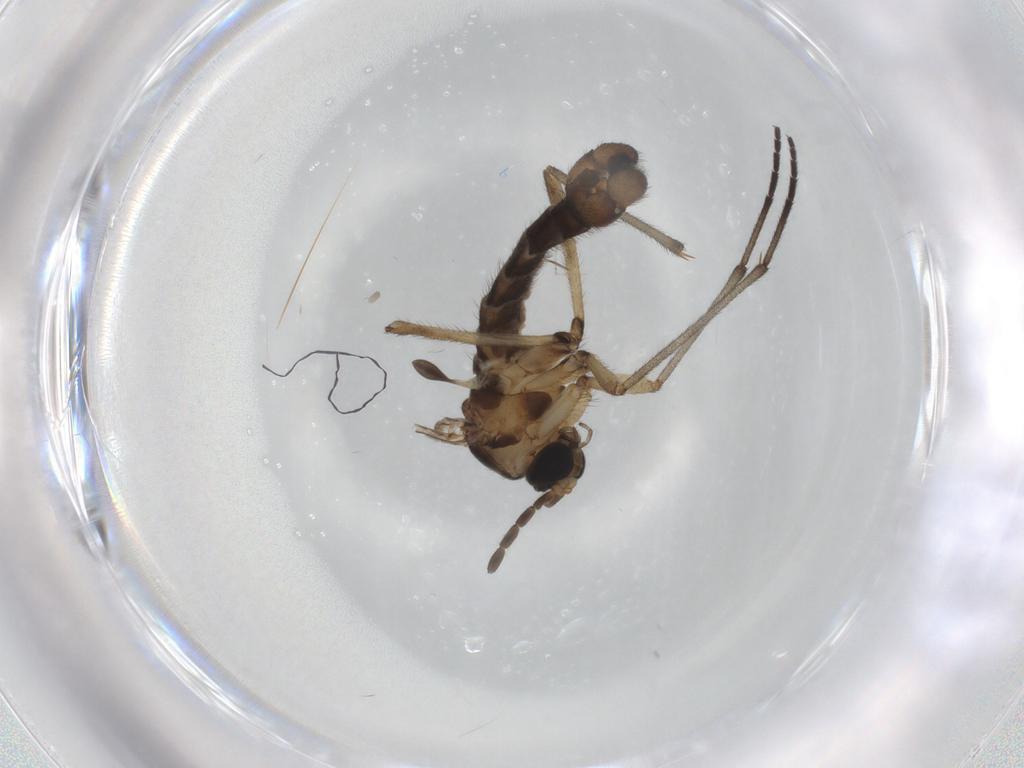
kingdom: Animalia
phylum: Arthropoda
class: Insecta
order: Diptera
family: Sciaridae
